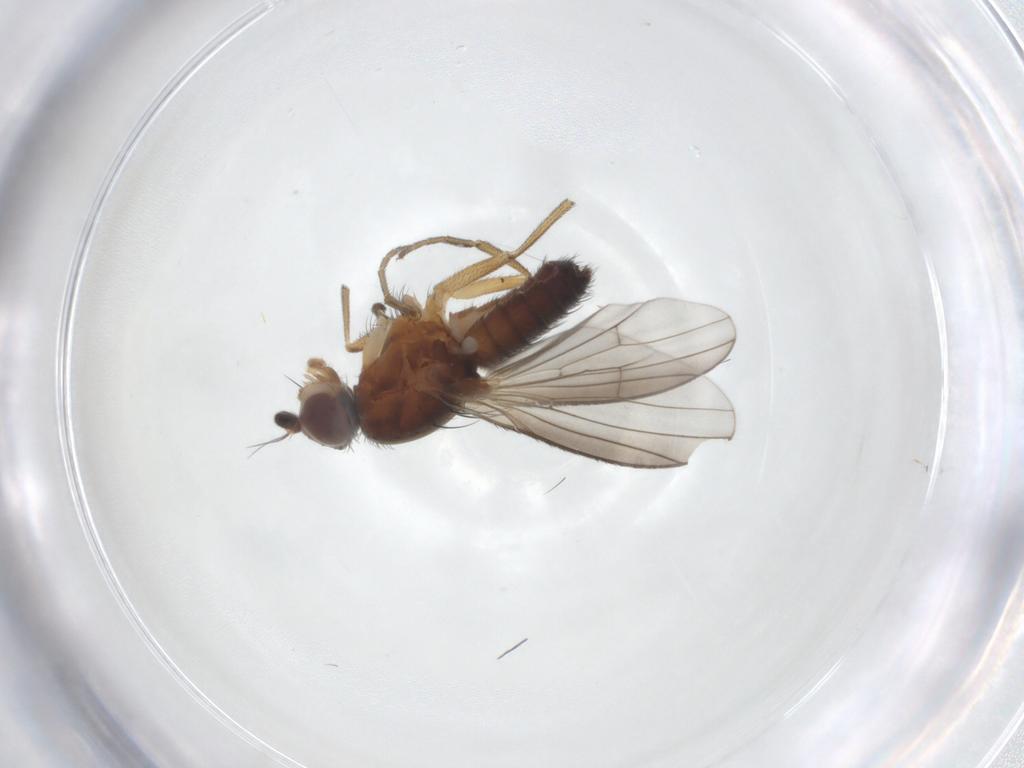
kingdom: Animalia
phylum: Arthropoda
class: Insecta
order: Diptera
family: Heleomyzidae
